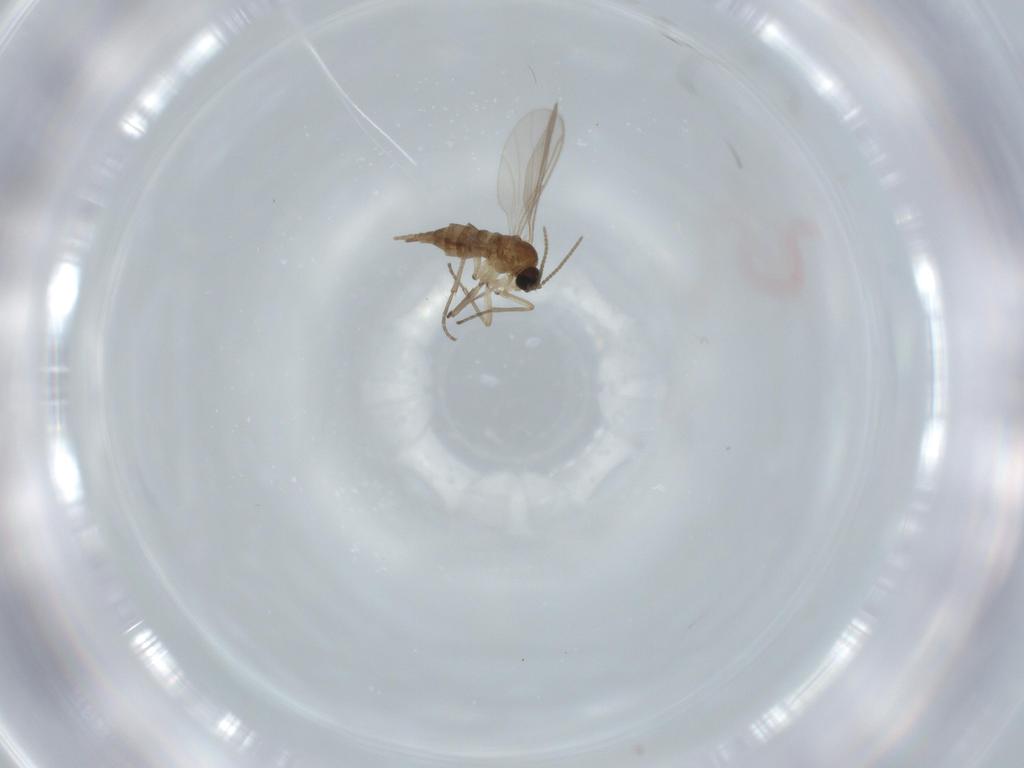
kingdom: Animalia
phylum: Arthropoda
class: Insecta
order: Diptera
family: Sciaridae
